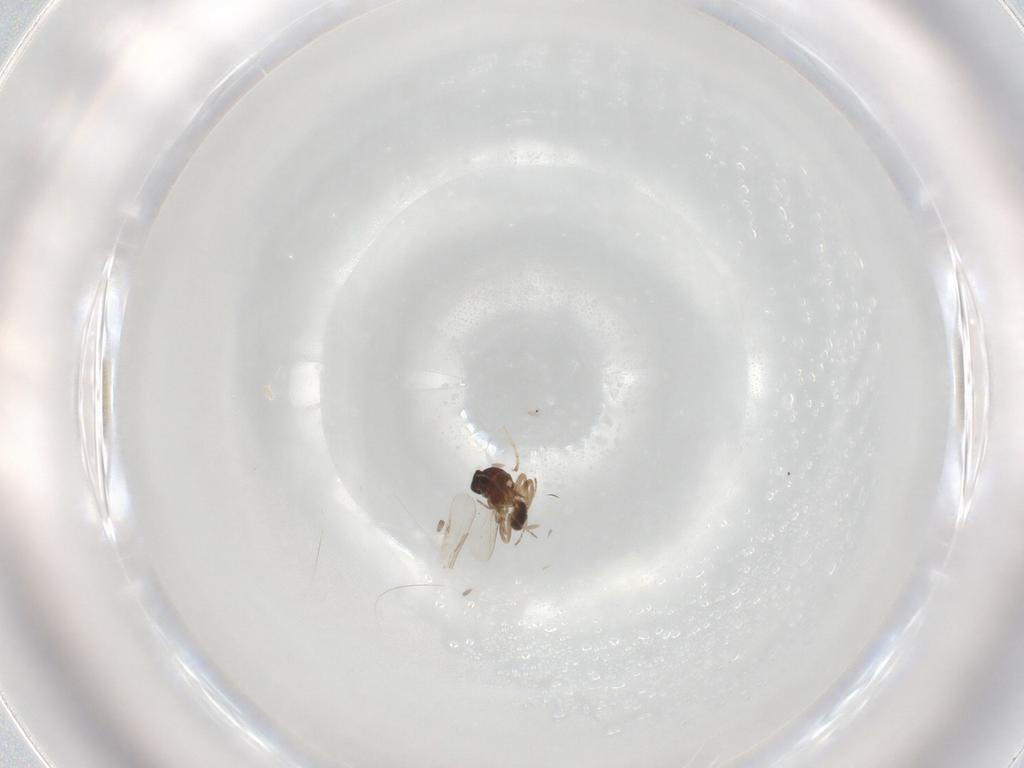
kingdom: Animalia
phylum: Arthropoda
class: Insecta
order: Diptera
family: Ceratopogonidae
